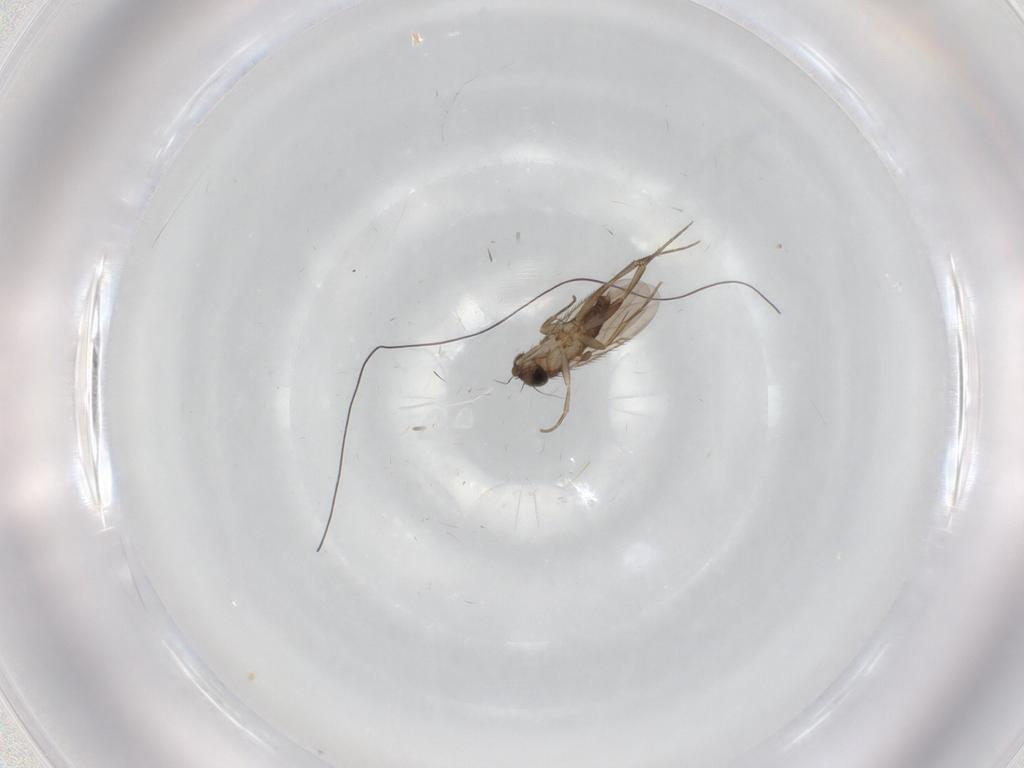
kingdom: Animalia
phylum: Arthropoda
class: Insecta
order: Diptera
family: Phoridae
